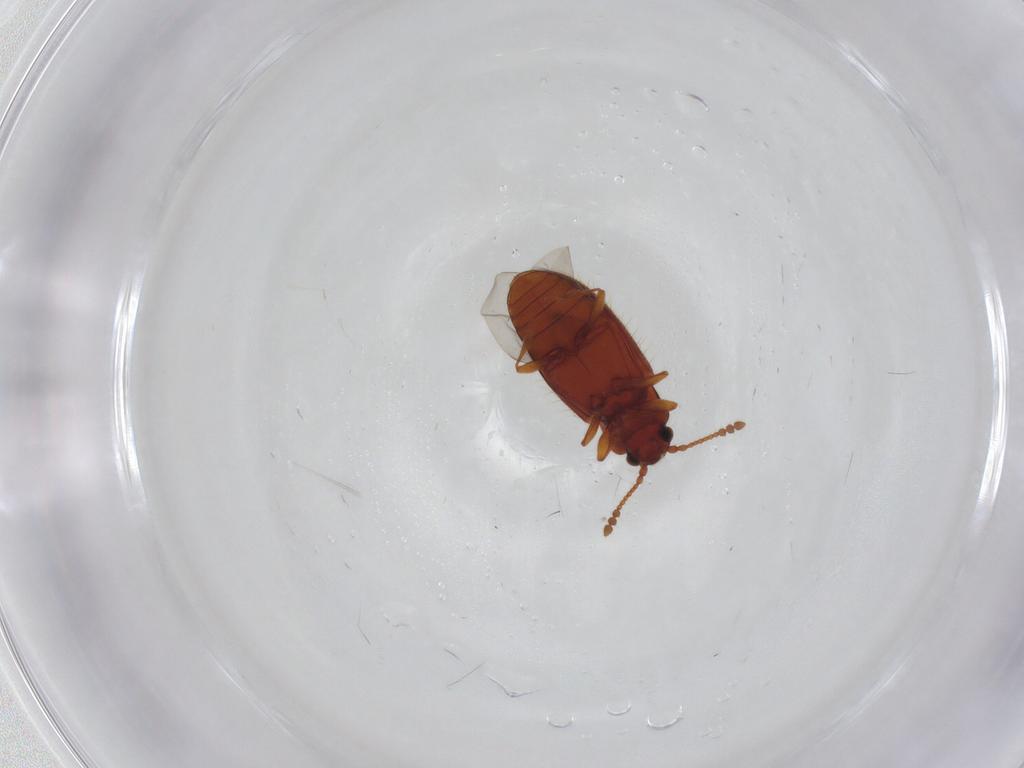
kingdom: Animalia
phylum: Arthropoda
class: Insecta
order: Coleoptera
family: Cryptophagidae
